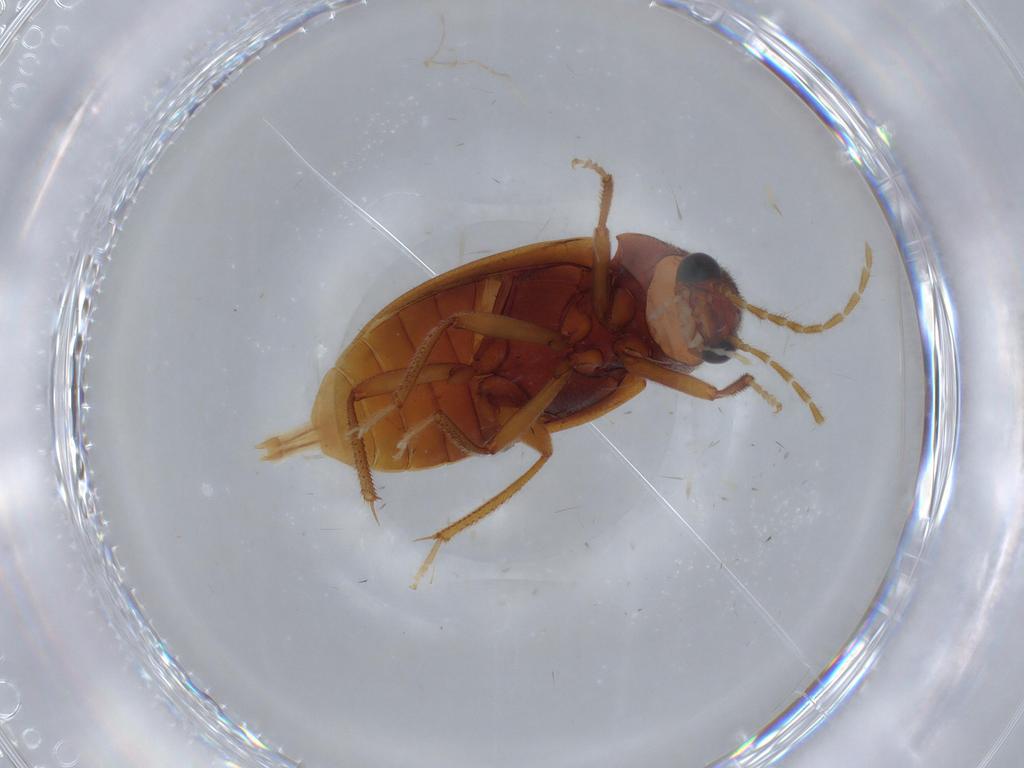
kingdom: Animalia
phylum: Arthropoda
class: Insecta
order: Coleoptera
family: Ptilodactylidae
